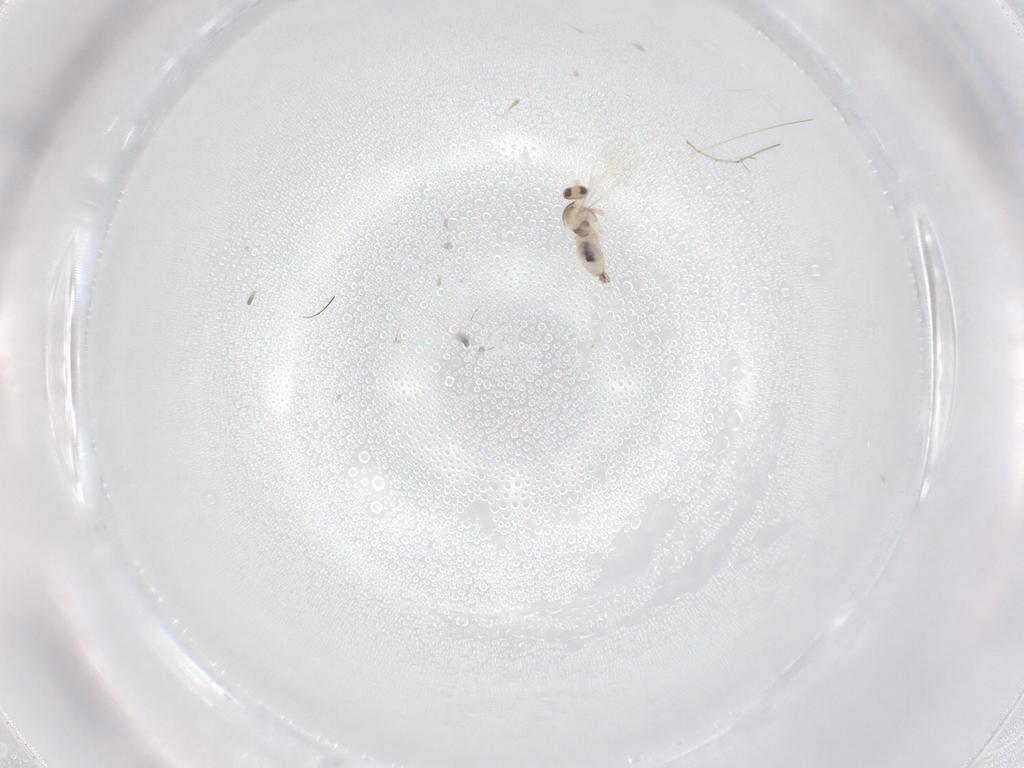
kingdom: Animalia
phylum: Arthropoda
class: Insecta
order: Diptera
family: Cecidomyiidae
